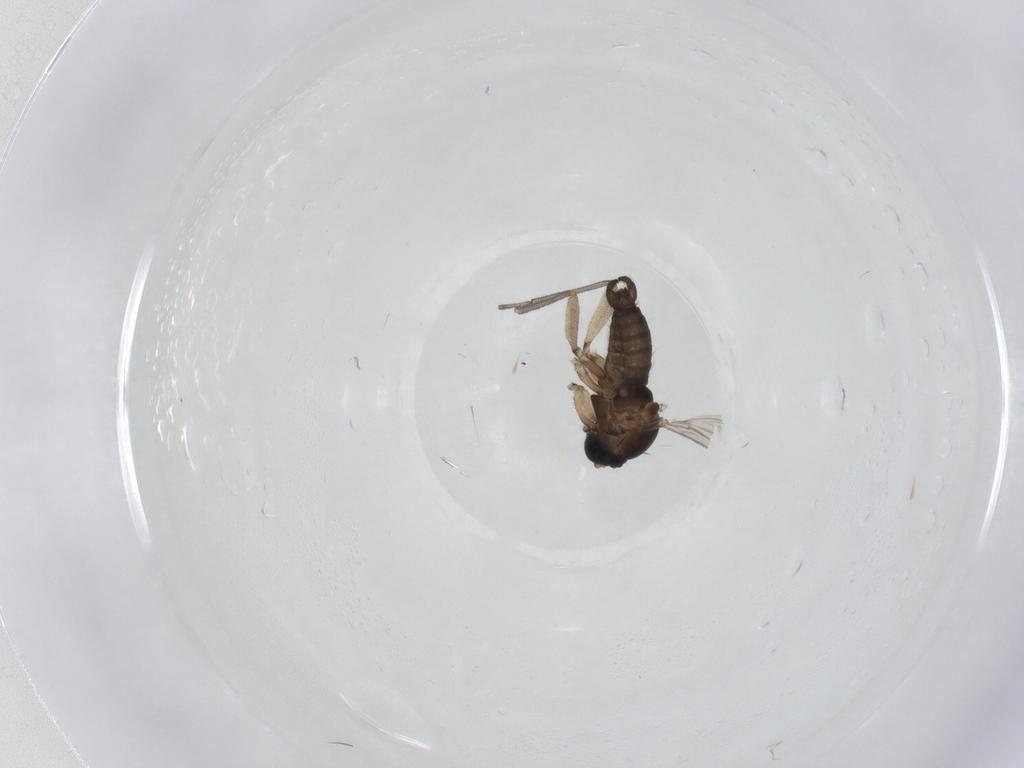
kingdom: Animalia
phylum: Arthropoda
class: Insecta
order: Diptera
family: Sciaridae
